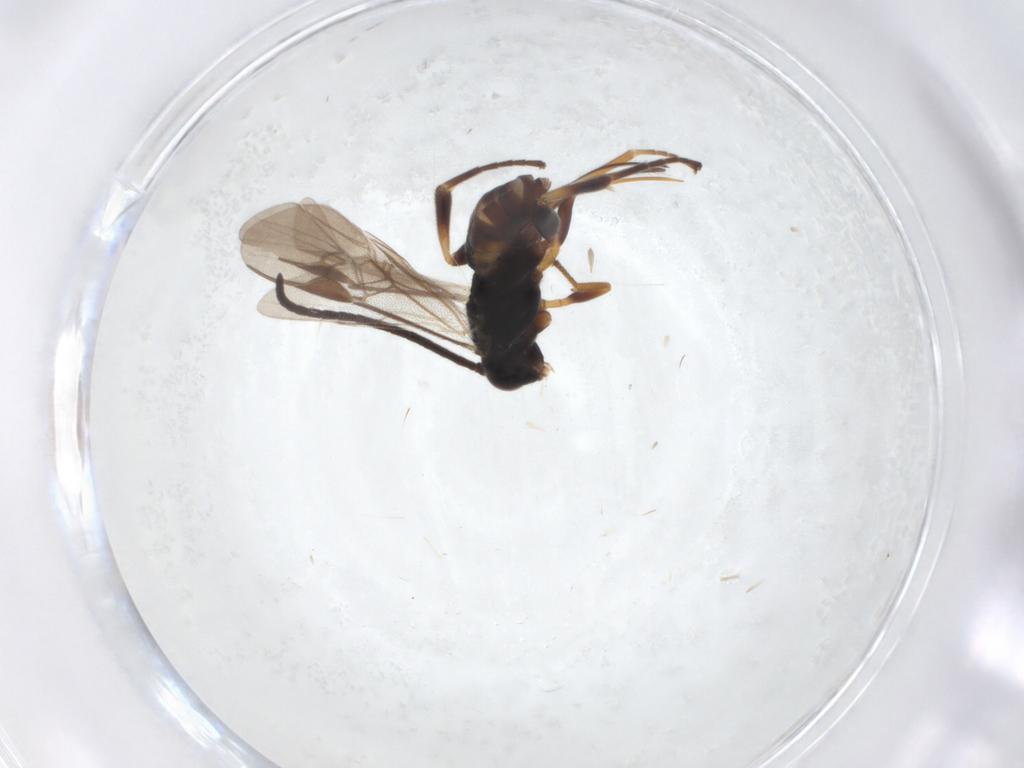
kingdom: Animalia
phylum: Arthropoda
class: Insecta
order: Hymenoptera
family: Braconidae
